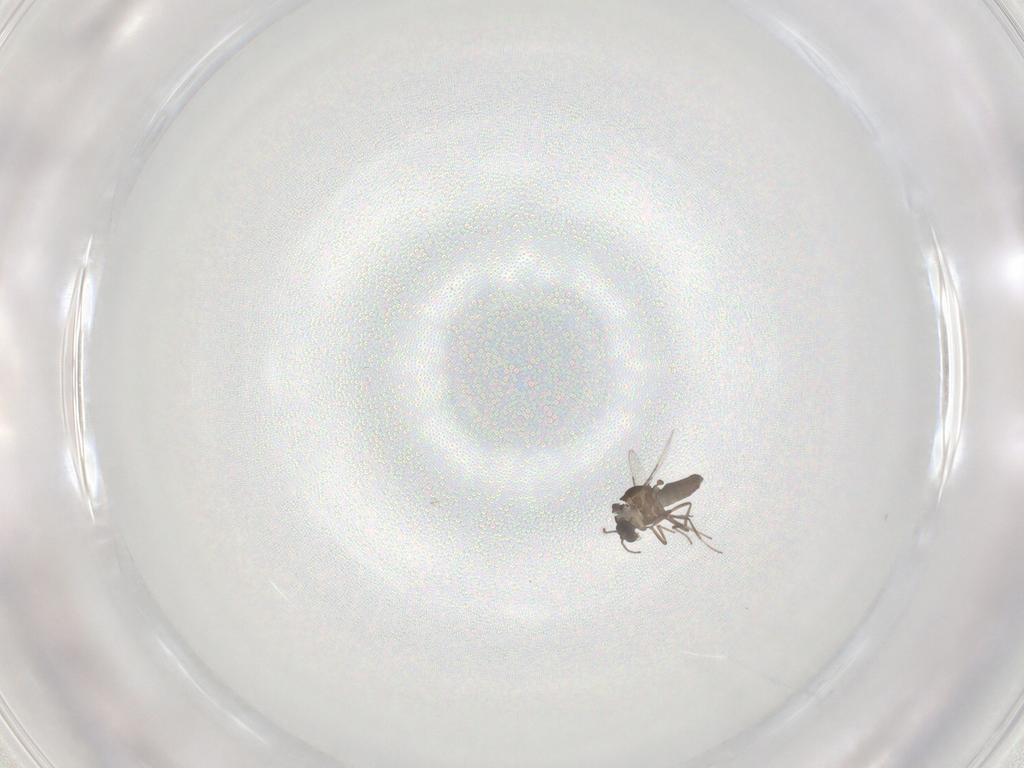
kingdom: Animalia
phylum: Arthropoda
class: Insecta
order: Diptera
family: Ceratopogonidae
